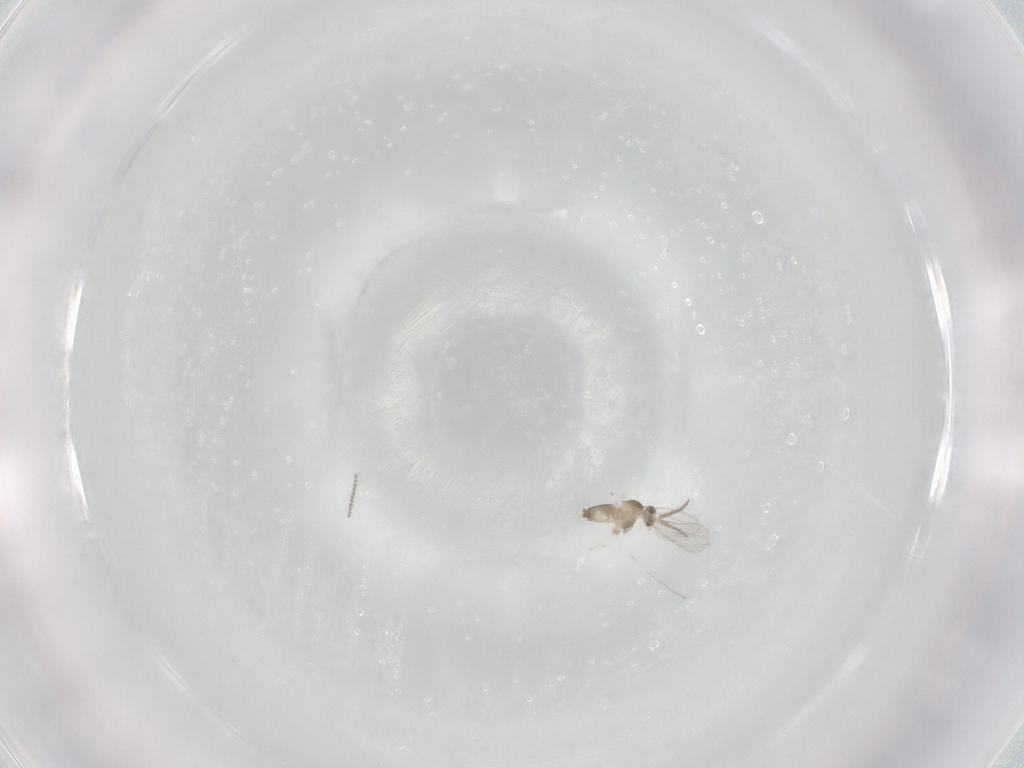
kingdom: Animalia
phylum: Arthropoda
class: Insecta
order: Diptera
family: Cecidomyiidae
